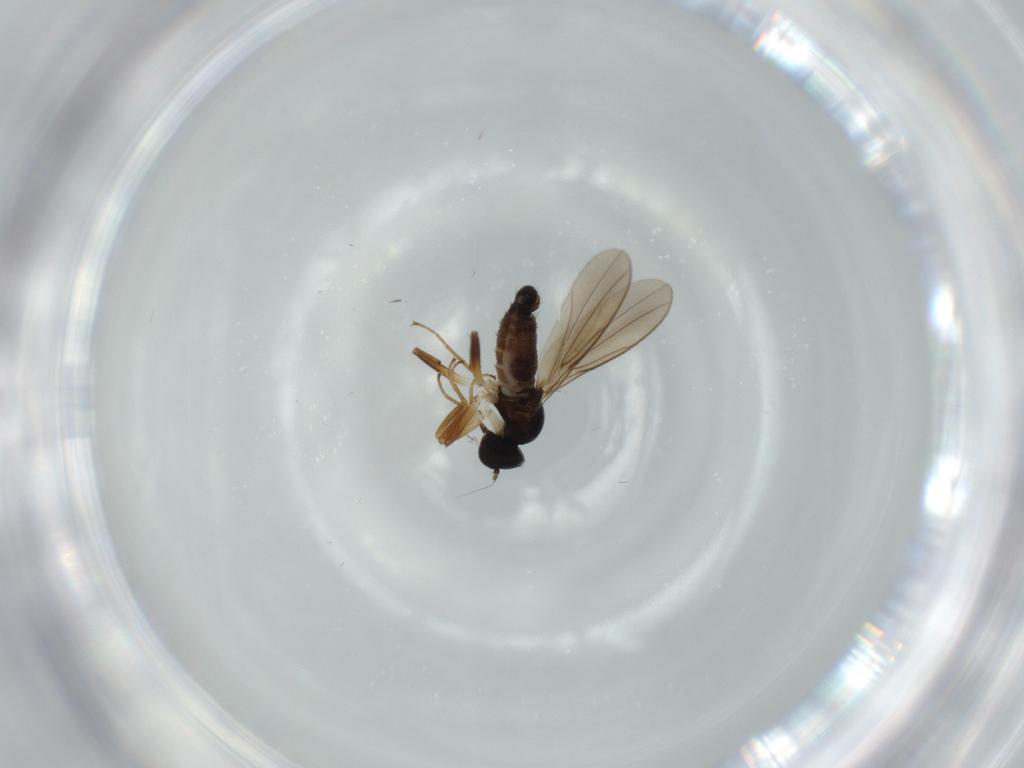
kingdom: Animalia
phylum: Arthropoda
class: Insecta
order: Diptera
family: Hybotidae
